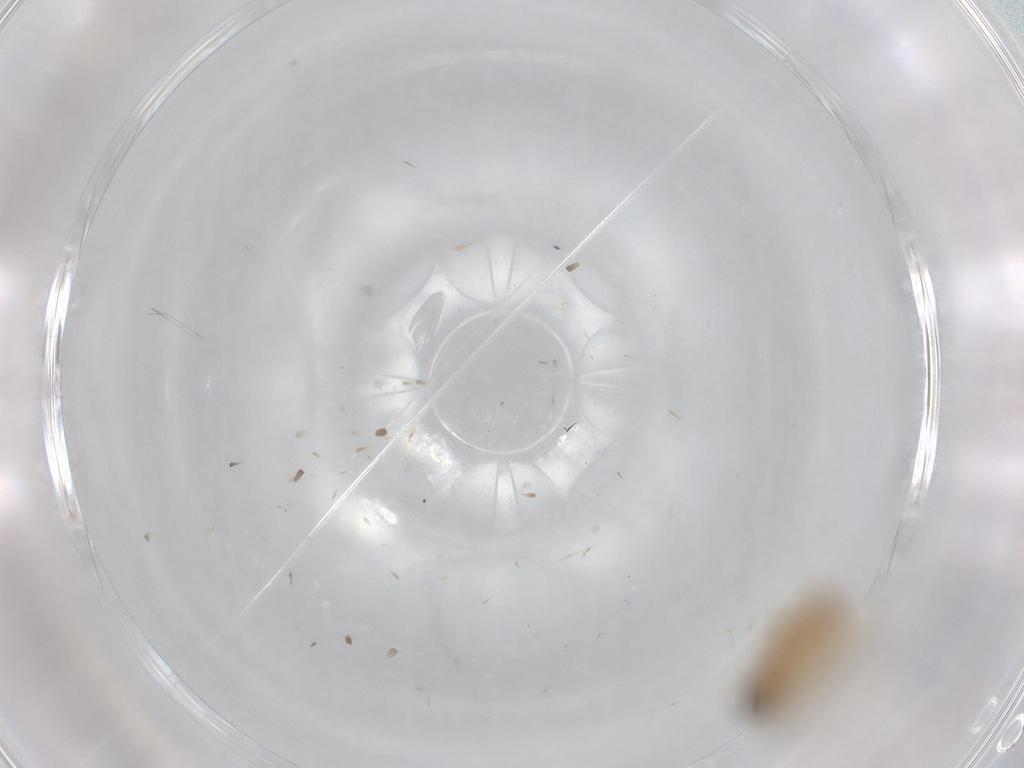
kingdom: Animalia
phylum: Arthropoda
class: Insecta
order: Lepidoptera
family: Nepticulidae
